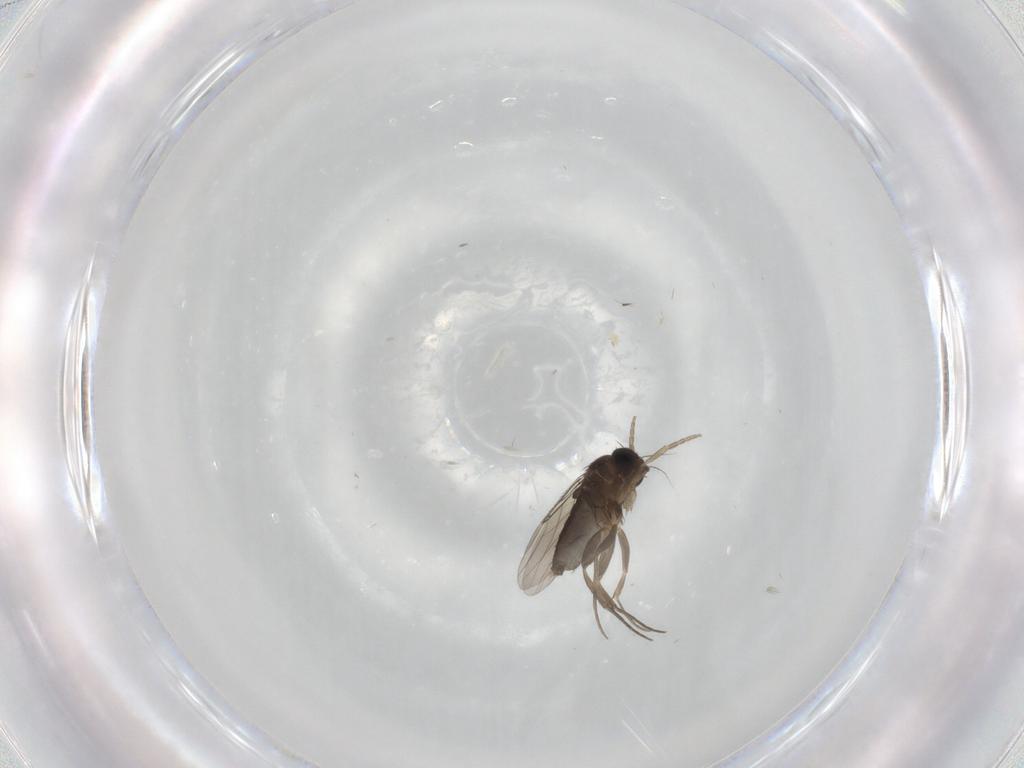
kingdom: Animalia
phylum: Arthropoda
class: Insecta
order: Diptera
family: Phoridae
